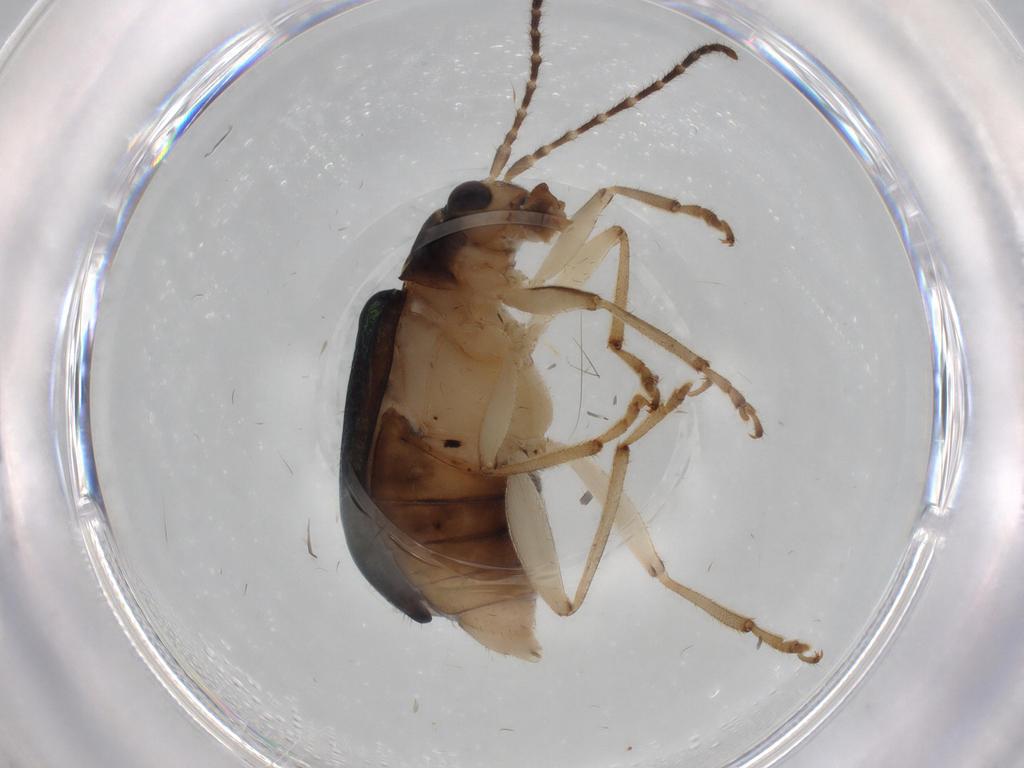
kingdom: Animalia
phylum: Arthropoda
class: Insecta
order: Coleoptera
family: Chrysomelidae
